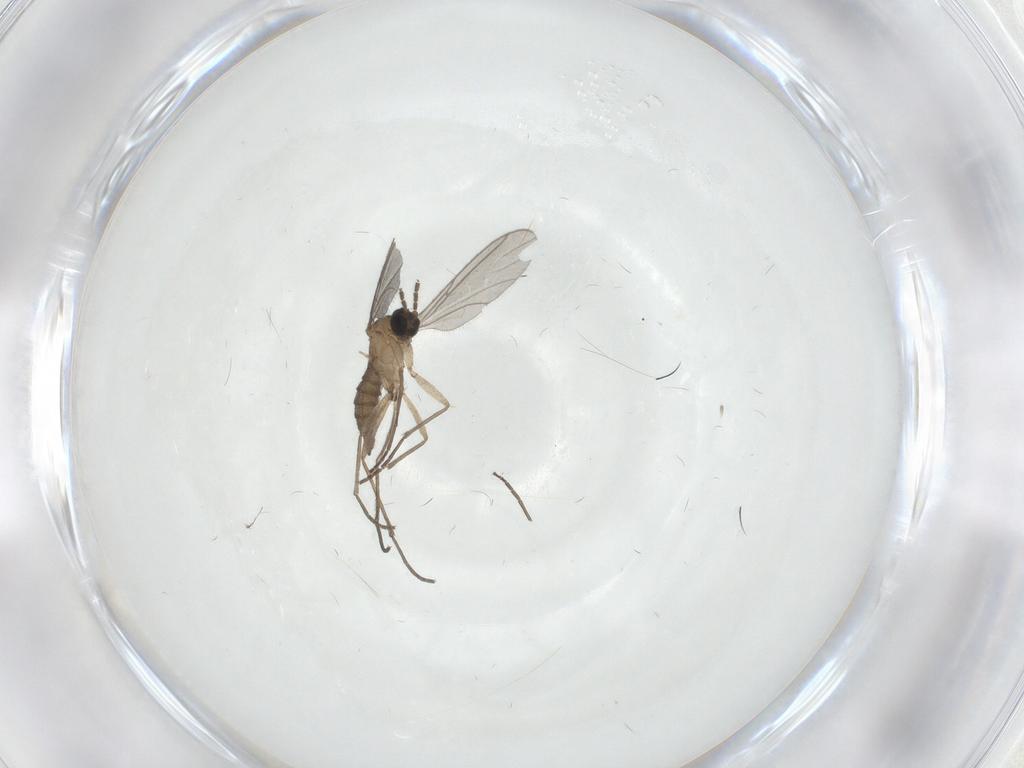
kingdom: Animalia
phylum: Arthropoda
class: Insecta
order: Diptera
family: Sciaridae
